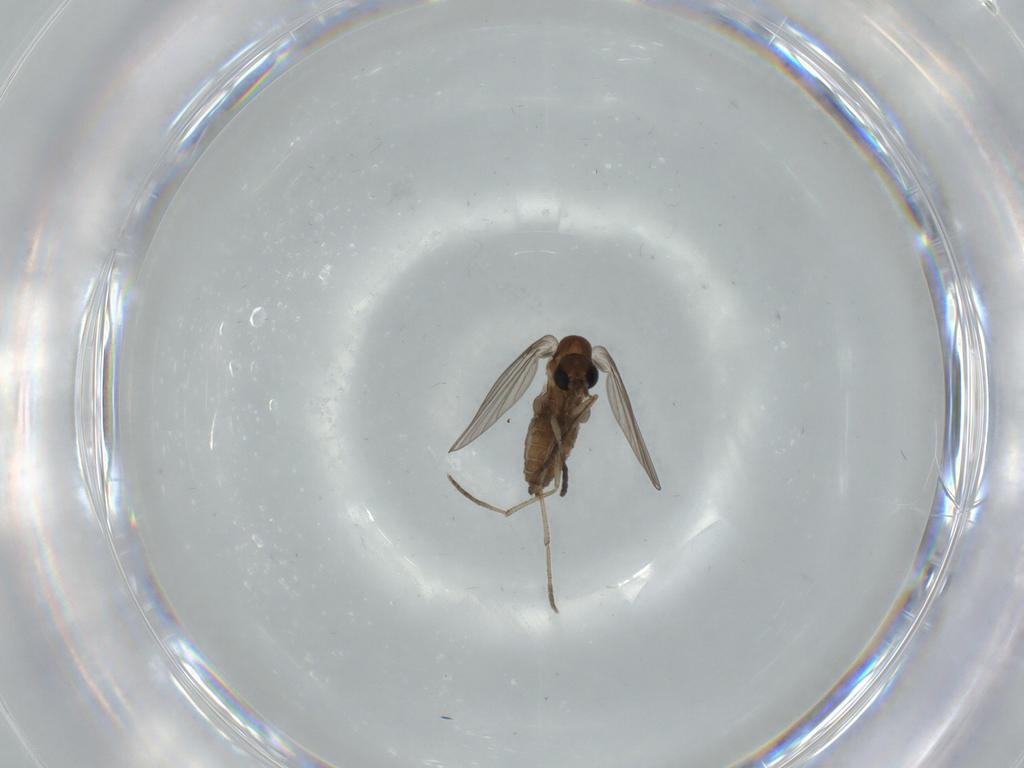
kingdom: Animalia
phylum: Arthropoda
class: Insecta
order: Diptera
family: Psychodidae
